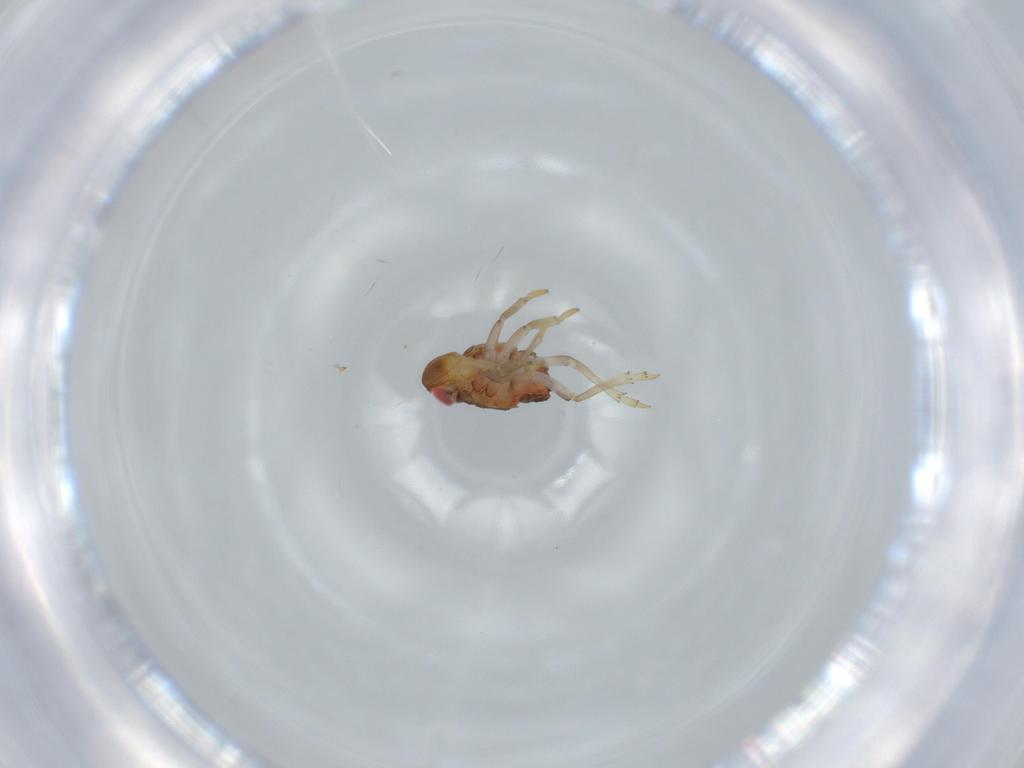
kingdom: Animalia
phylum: Arthropoda
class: Insecta
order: Hemiptera
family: Issidae
